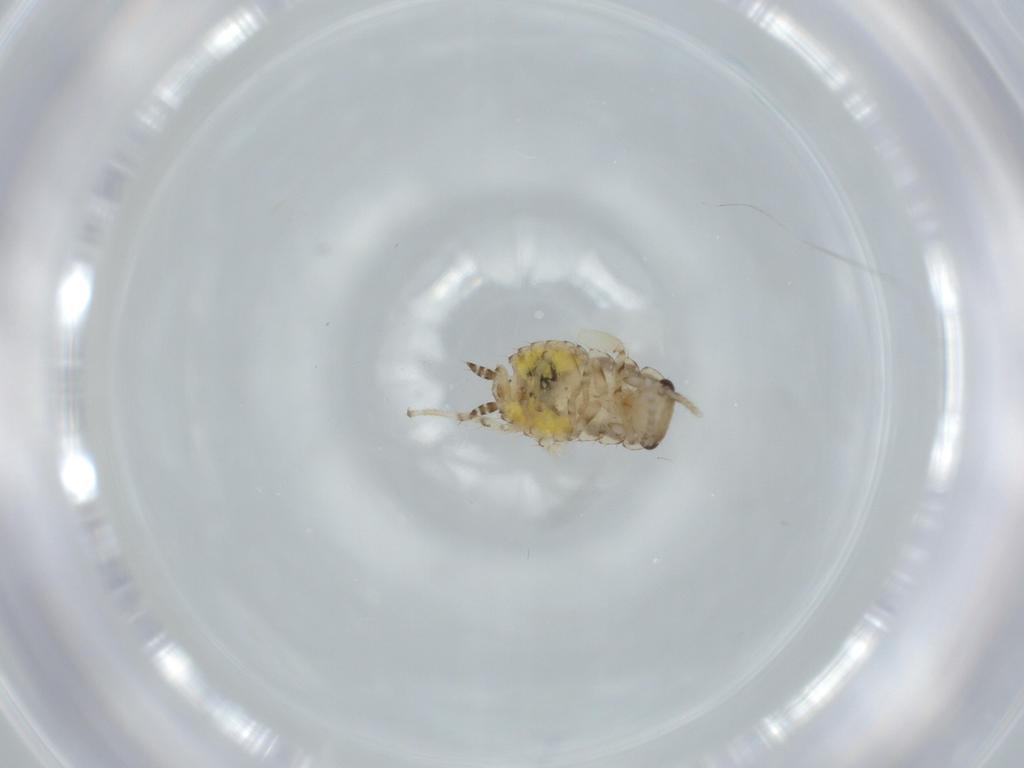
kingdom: Animalia
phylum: Arthropoda
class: Insecta
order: Blattodea
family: Ectobiidae
